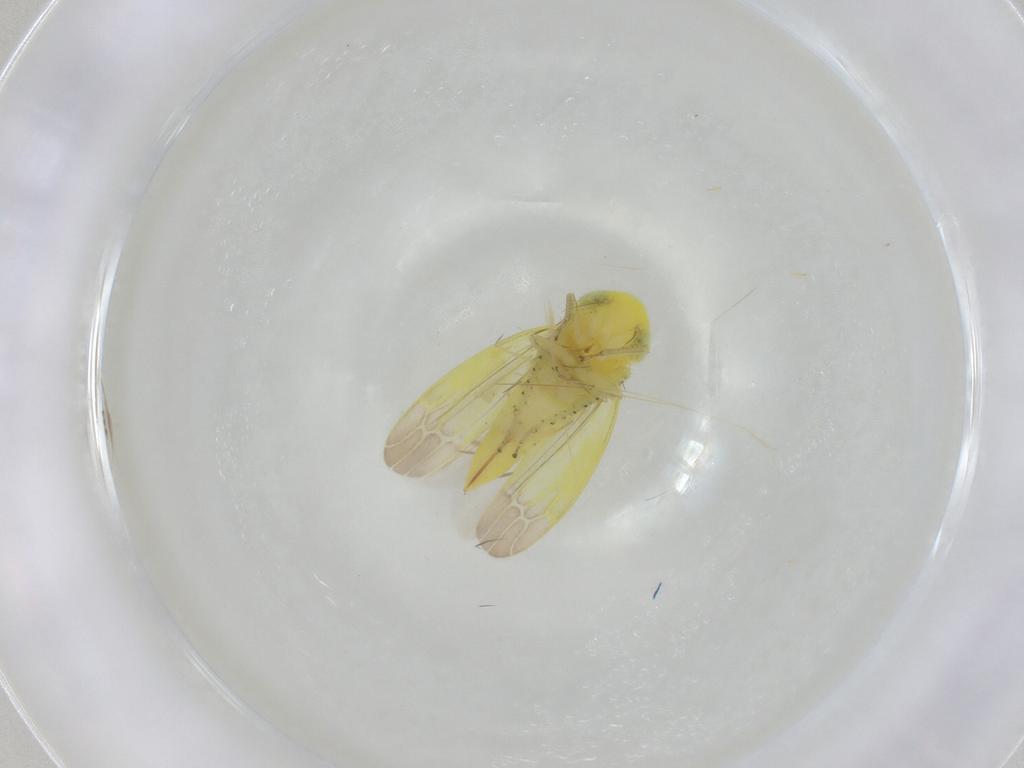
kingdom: Animalia
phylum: Arthropoda
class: Insecta
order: Hemiptera
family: Cicadellidae
